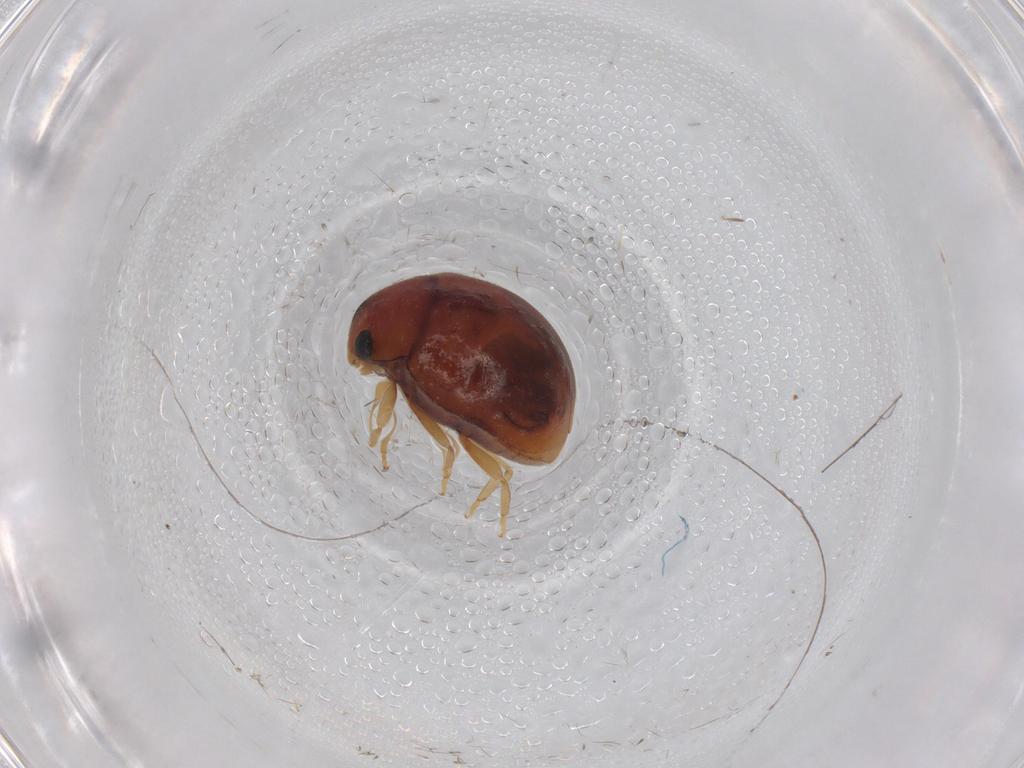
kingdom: Animalia
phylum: Arthropoda
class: Insecta
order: Coleoptera
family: Coccinellidae
